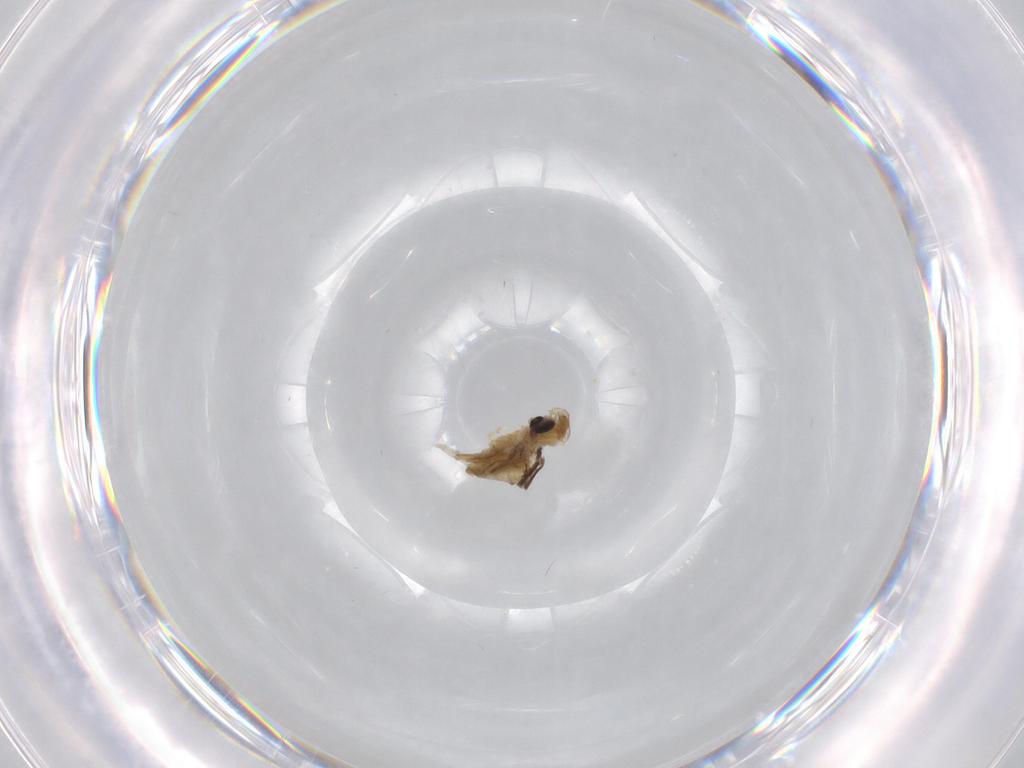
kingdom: Animalia
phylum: Arthropoda
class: Insecta
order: Diptera
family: Chironomidae
